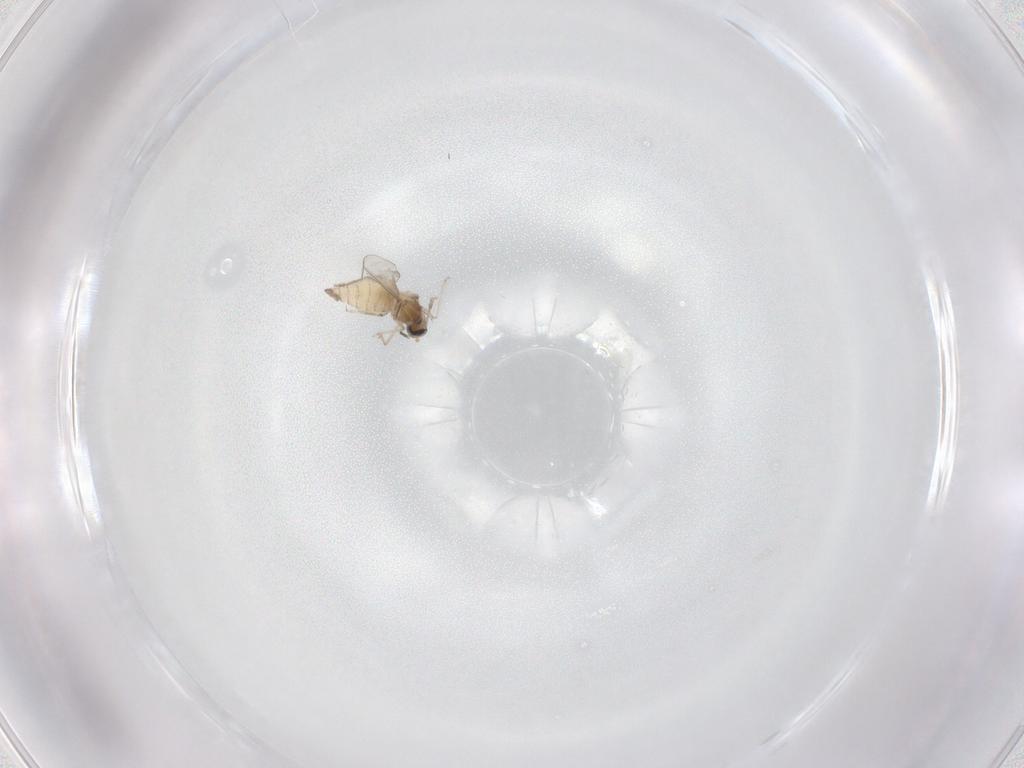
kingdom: Animalia
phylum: Arthropoda
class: Insecta
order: Diptera
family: Cecidomyiidae
